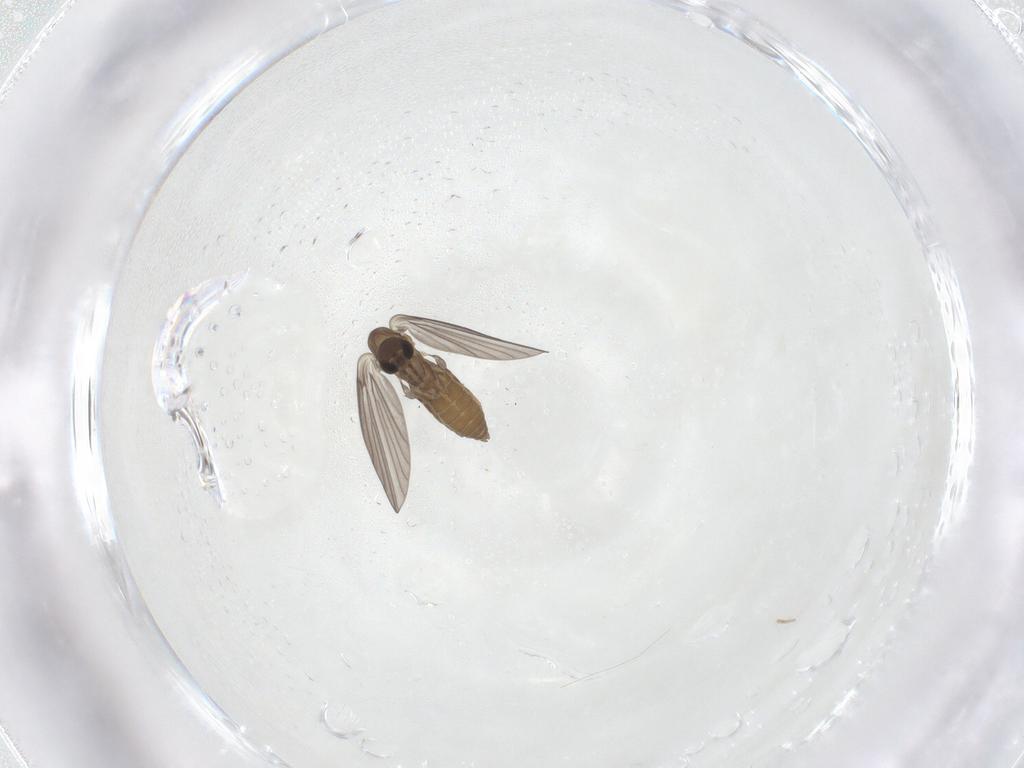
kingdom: Animalia
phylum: Arthropoda
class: Insecta
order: Diptera
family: Psychodidae
